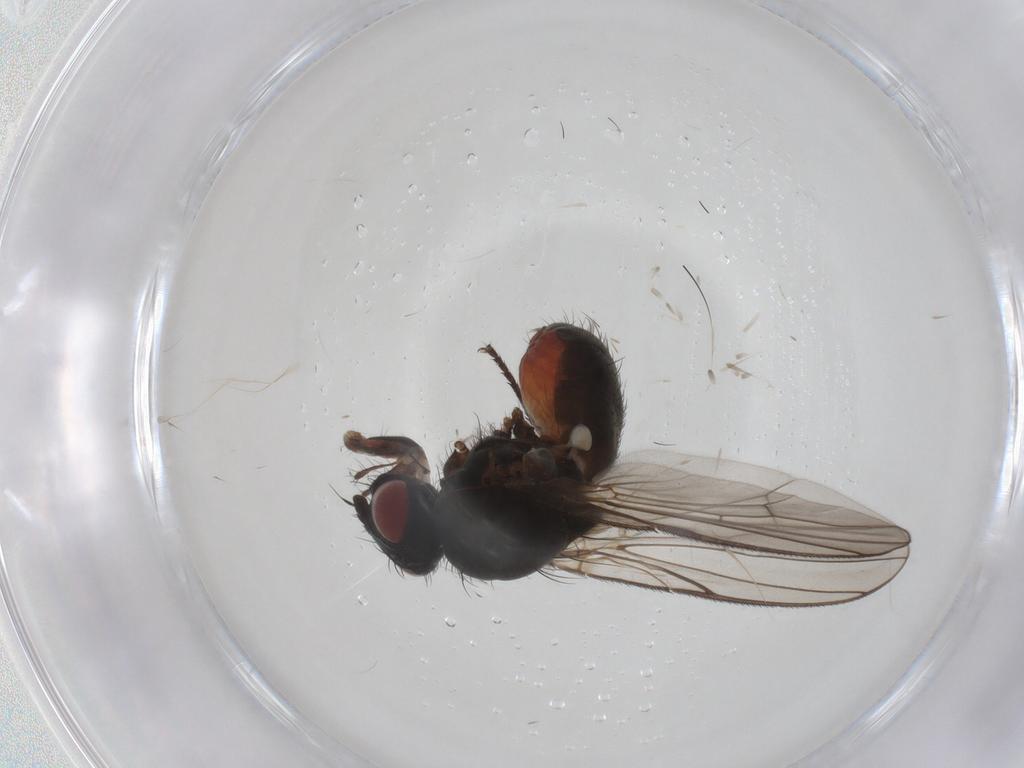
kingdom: Animalia
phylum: Arthropoda
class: Insecta
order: Diptera
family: Anthomyiidae
